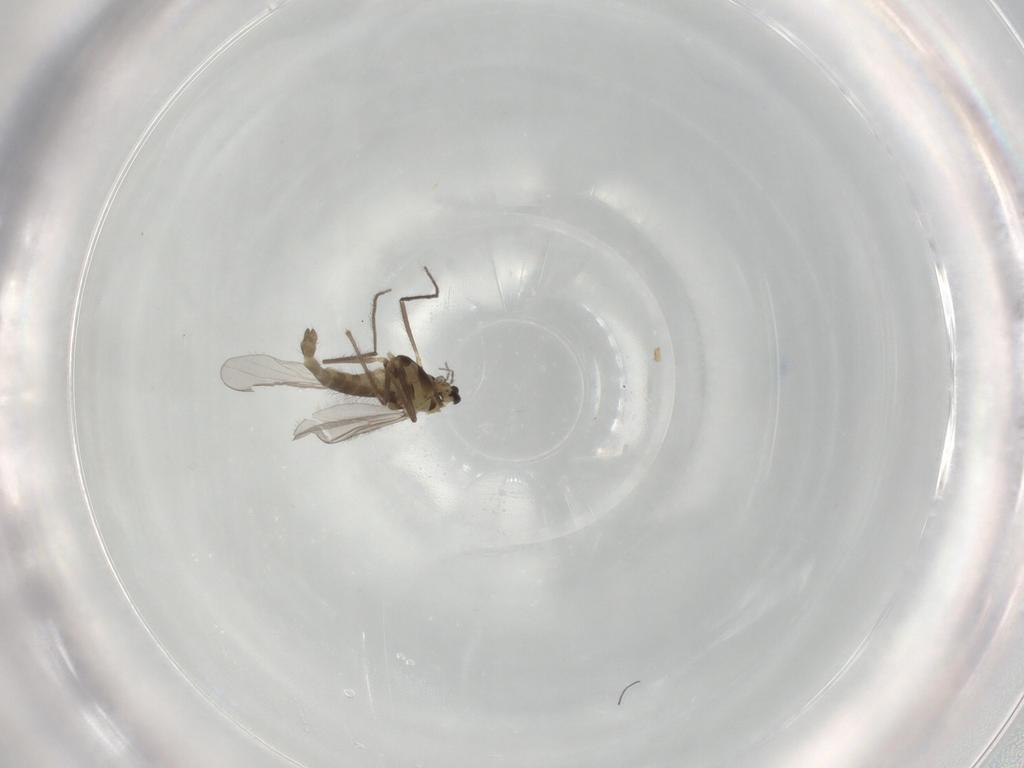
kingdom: Animalia
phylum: Arthropoda
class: Insecta
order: Diptera
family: Chironomidae
